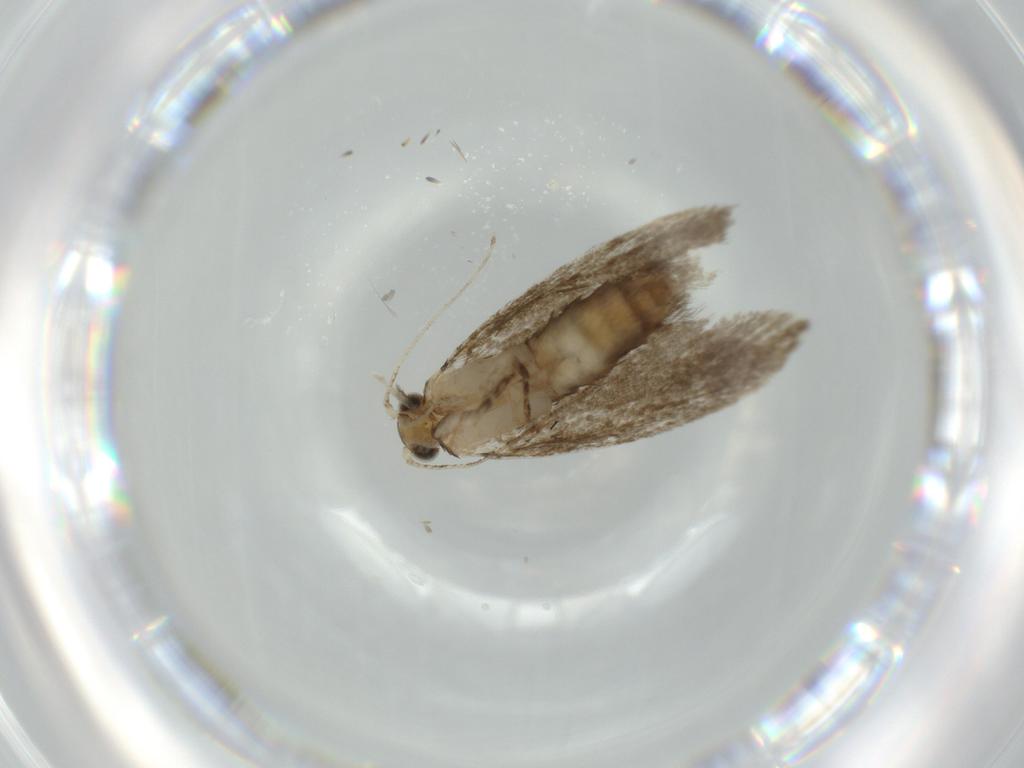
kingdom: Animalia
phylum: Arthropoda
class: Insecta
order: Lepidoptera
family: Tineidae
